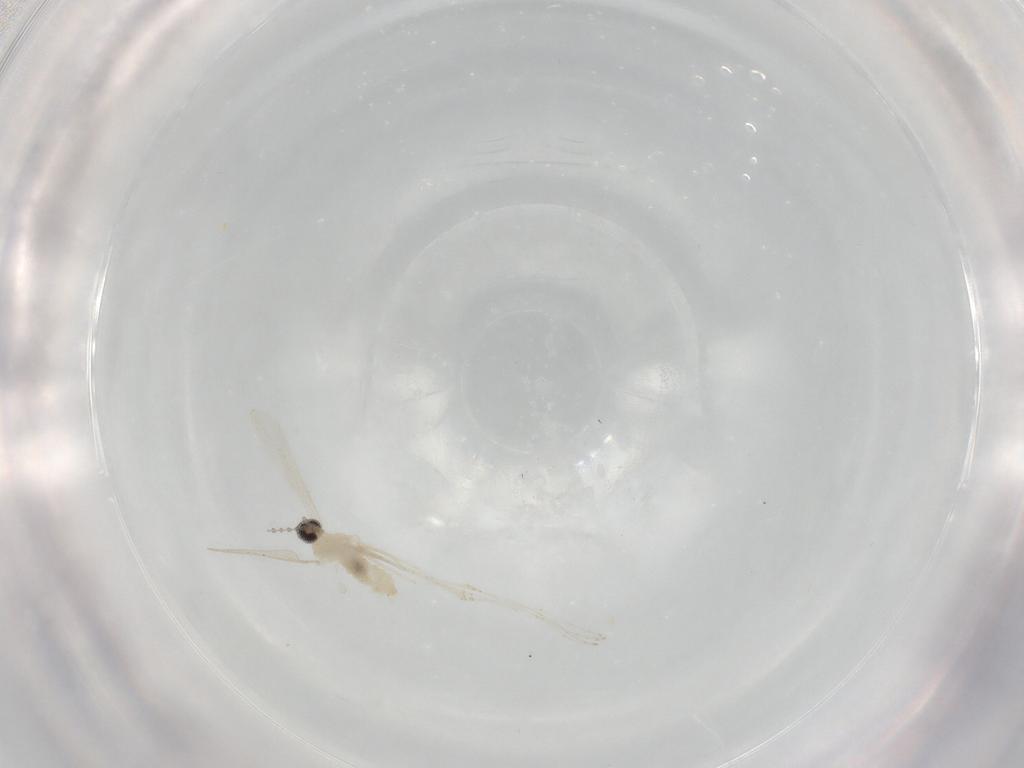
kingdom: Animalia
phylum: Arthropoda
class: Insecta
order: Diptera
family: Cecidomyiidae
